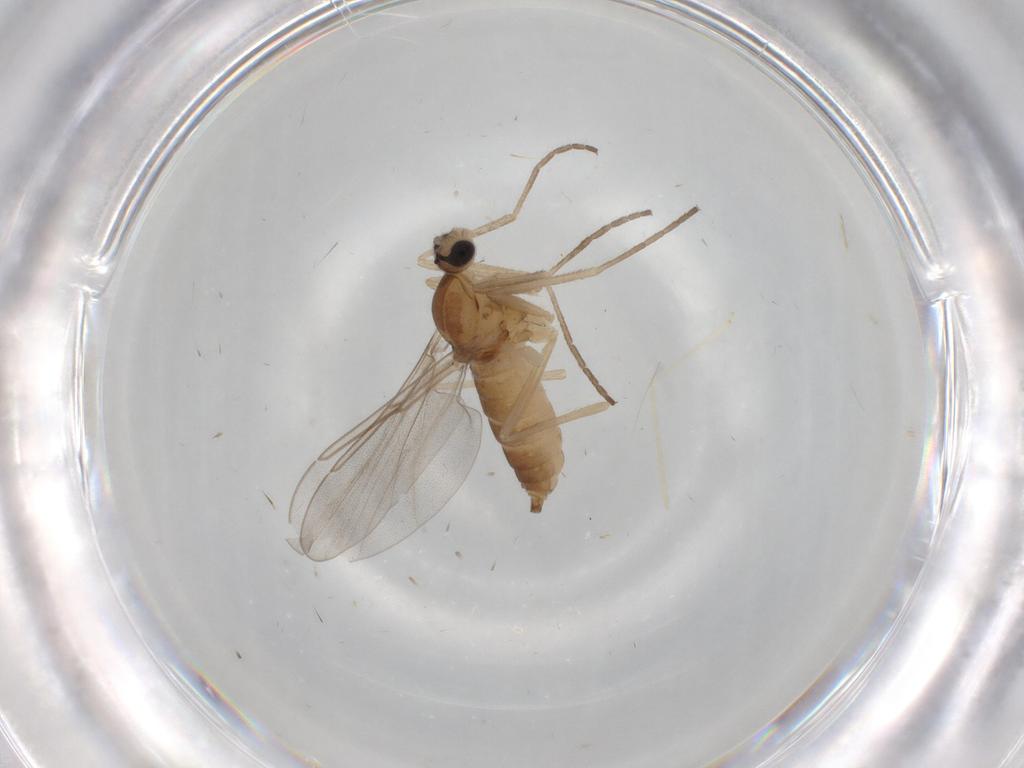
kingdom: Animalia
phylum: Arthropoda
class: Insecta
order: Diptera
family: Cecidomyiidae
